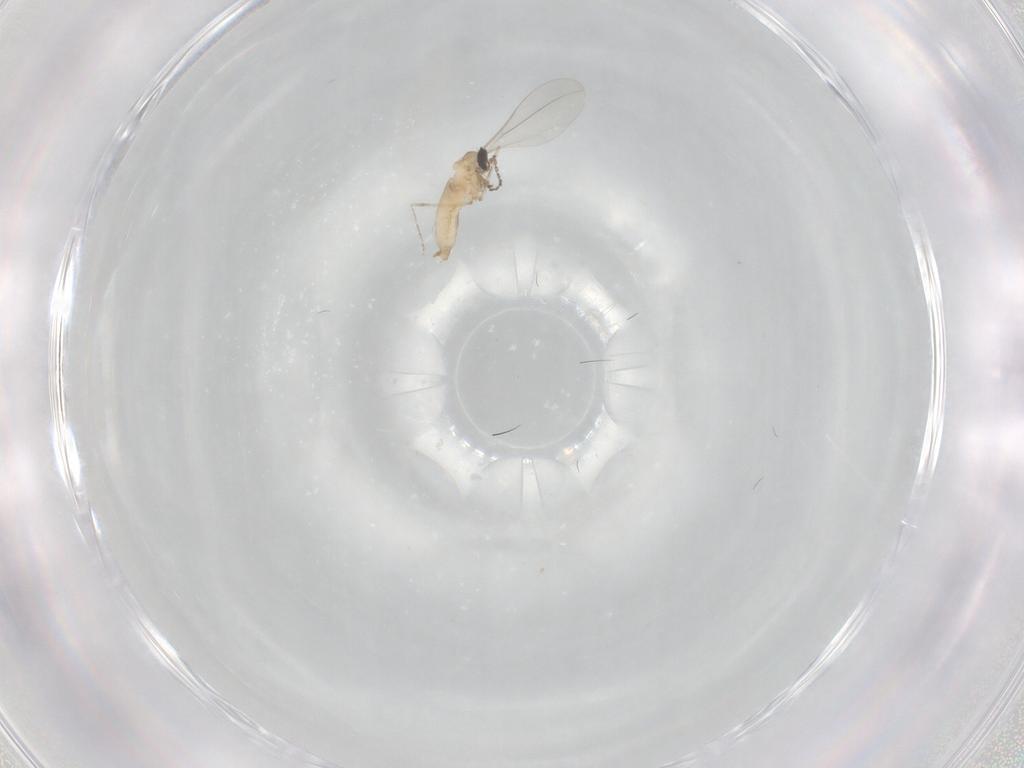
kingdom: Animalia
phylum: Arthropoda
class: Insecta
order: Diptera
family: Cecidomyiidae
